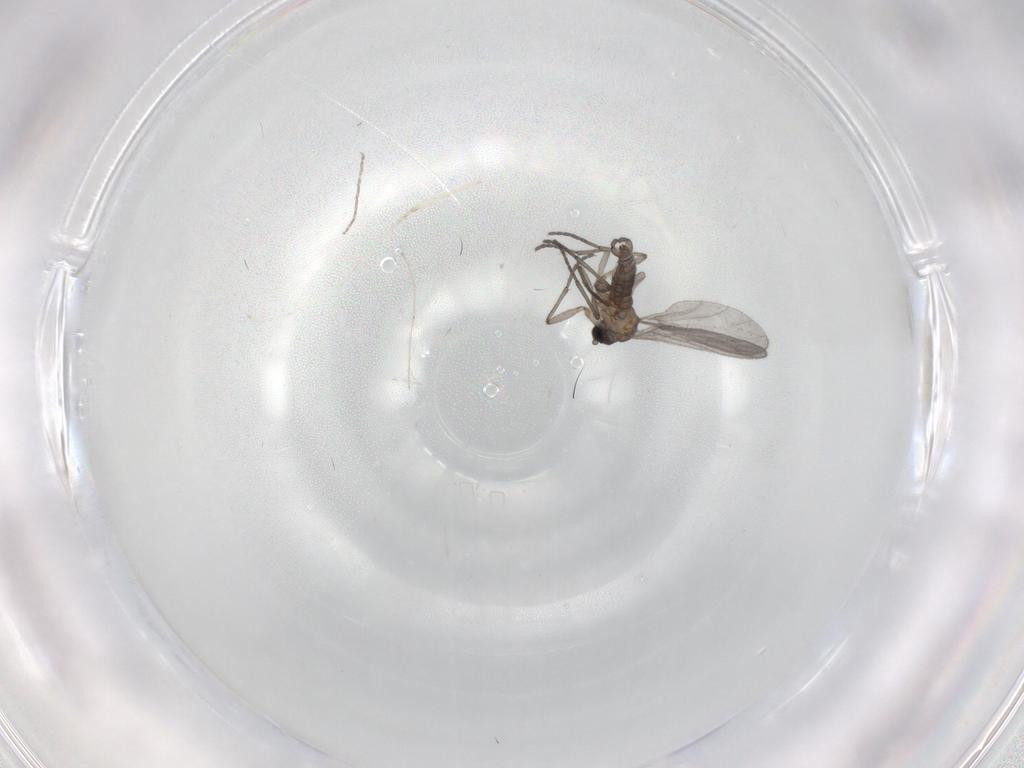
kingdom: Animalia
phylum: Arthropoda
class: Insecta
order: Diptera
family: Sciaridae
